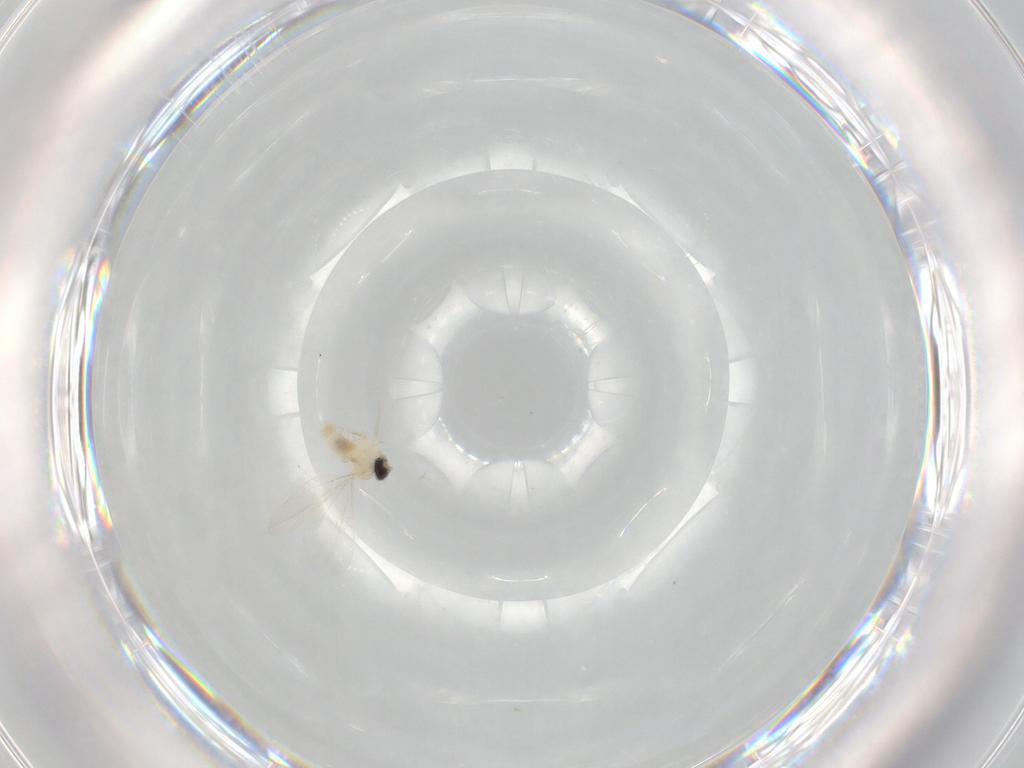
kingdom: Animalia
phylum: Arthropoda
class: Insecta
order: Diptera
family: Cecidomyiidae
